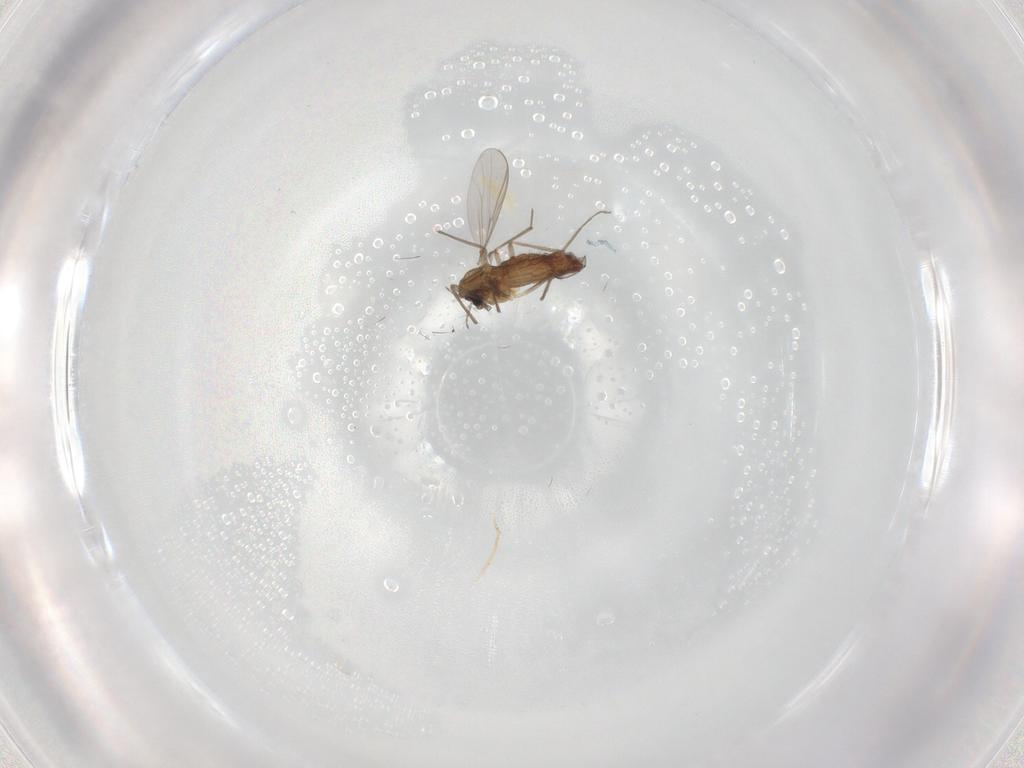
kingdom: Animalia
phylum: Arthropoda
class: Insecta
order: Diptera
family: Chironomidae
